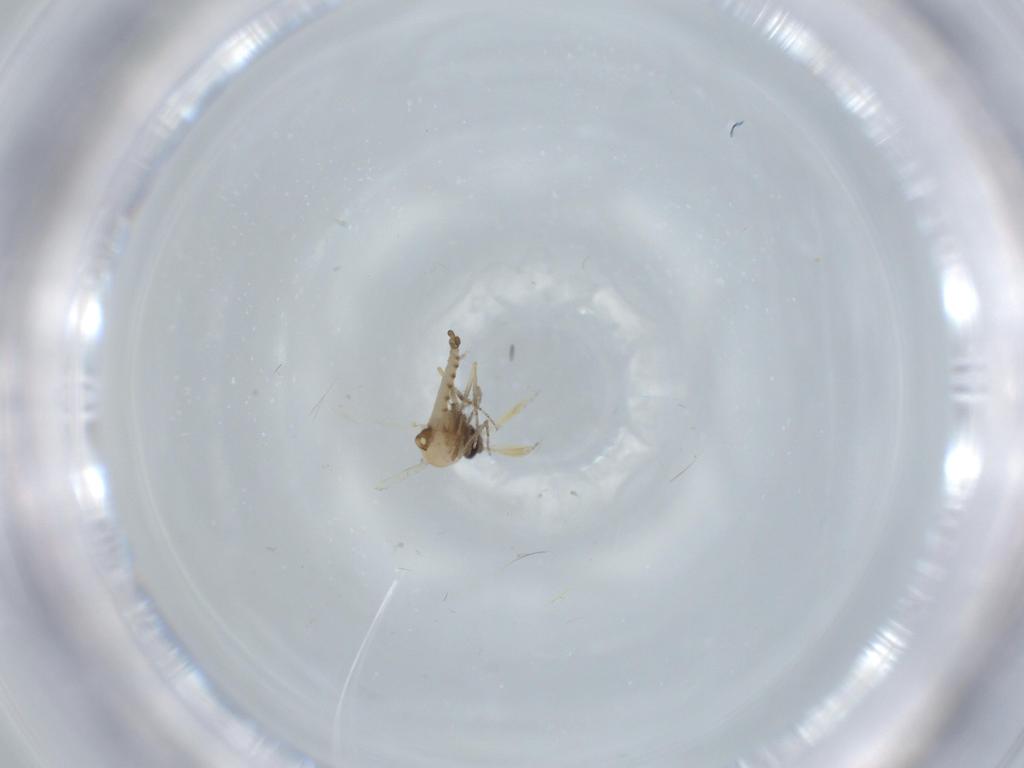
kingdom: Animalia
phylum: Arthropoda
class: Insecta
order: Diptera
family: Ceratopogonidae
